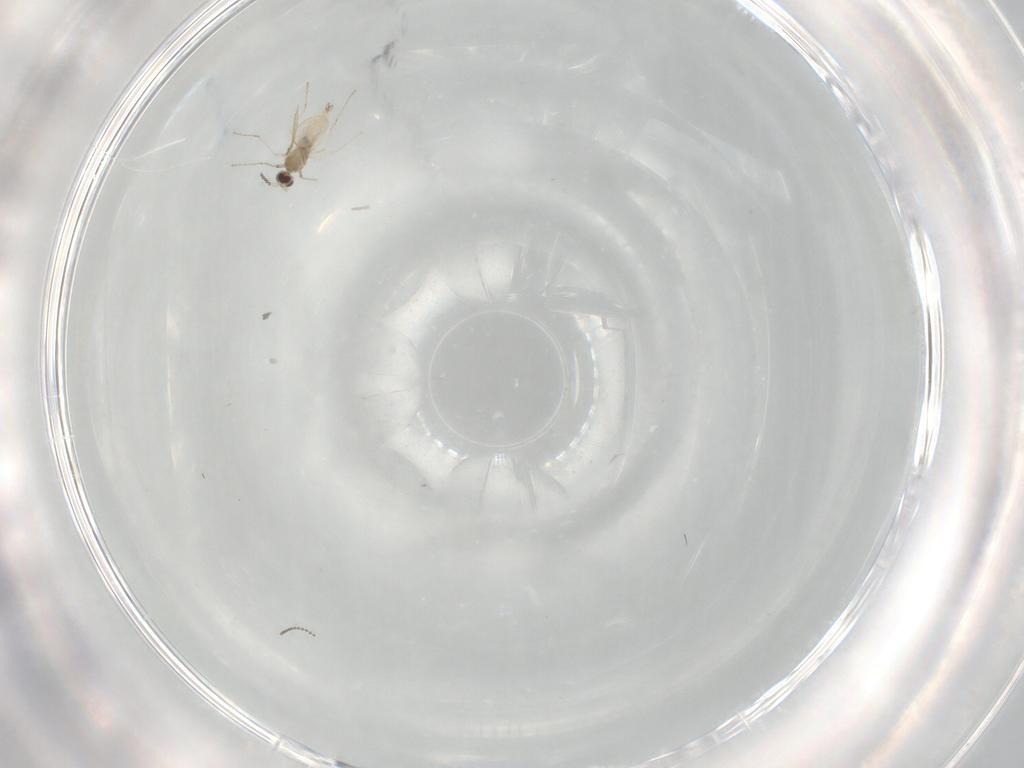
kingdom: Animalia
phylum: Arthropoda
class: Insecta
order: Diptera
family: Cecidomyiidae
